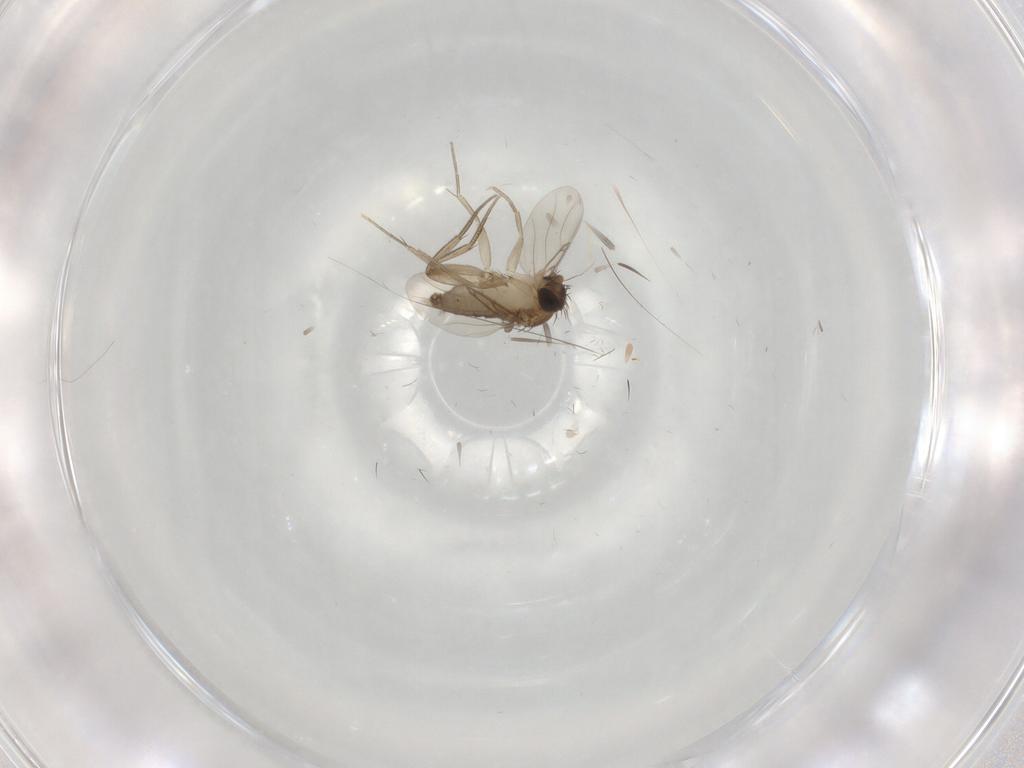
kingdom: Animalia
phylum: Arthropoda
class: Insecta
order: Diptera
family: Phoridae
